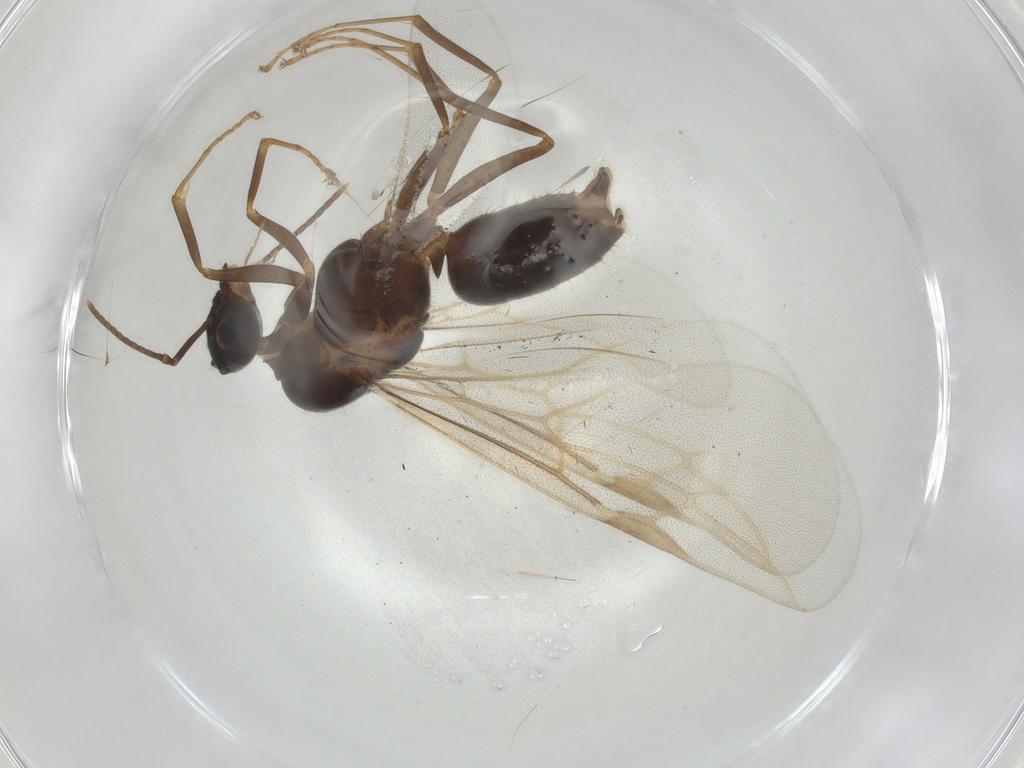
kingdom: Animalia
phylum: Arthropoda
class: Insecta
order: Hymenoptera
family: Formicidae
